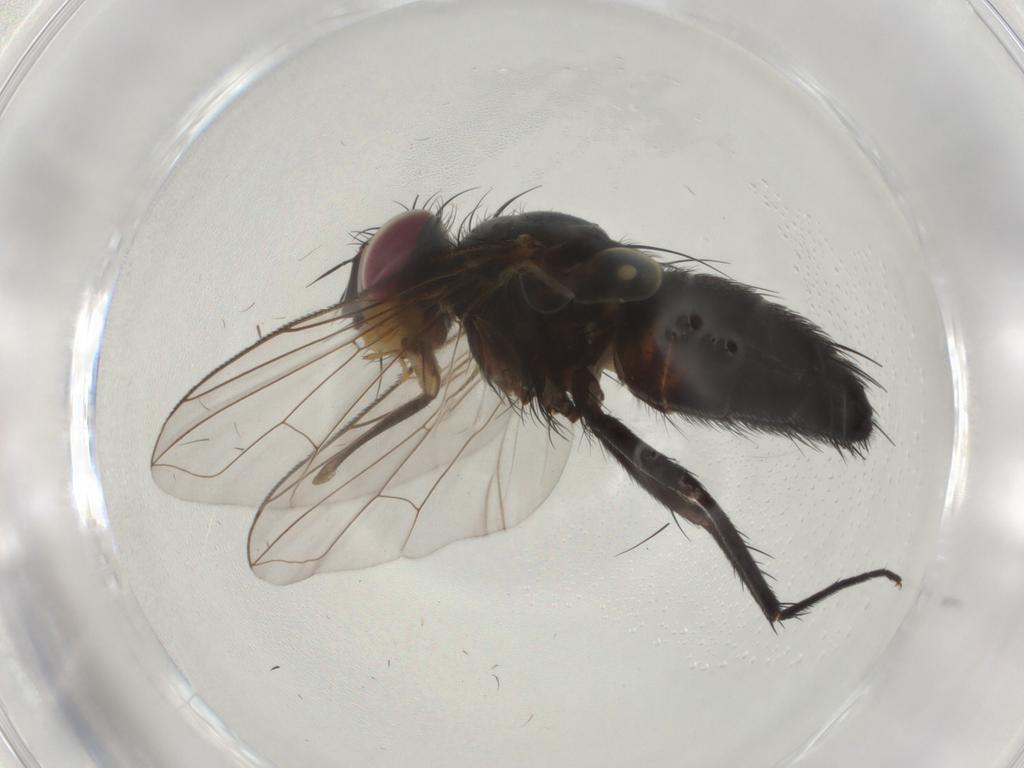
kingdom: Animalia
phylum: Arthropoda
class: Insecta
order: Diptera
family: Tachinidae
